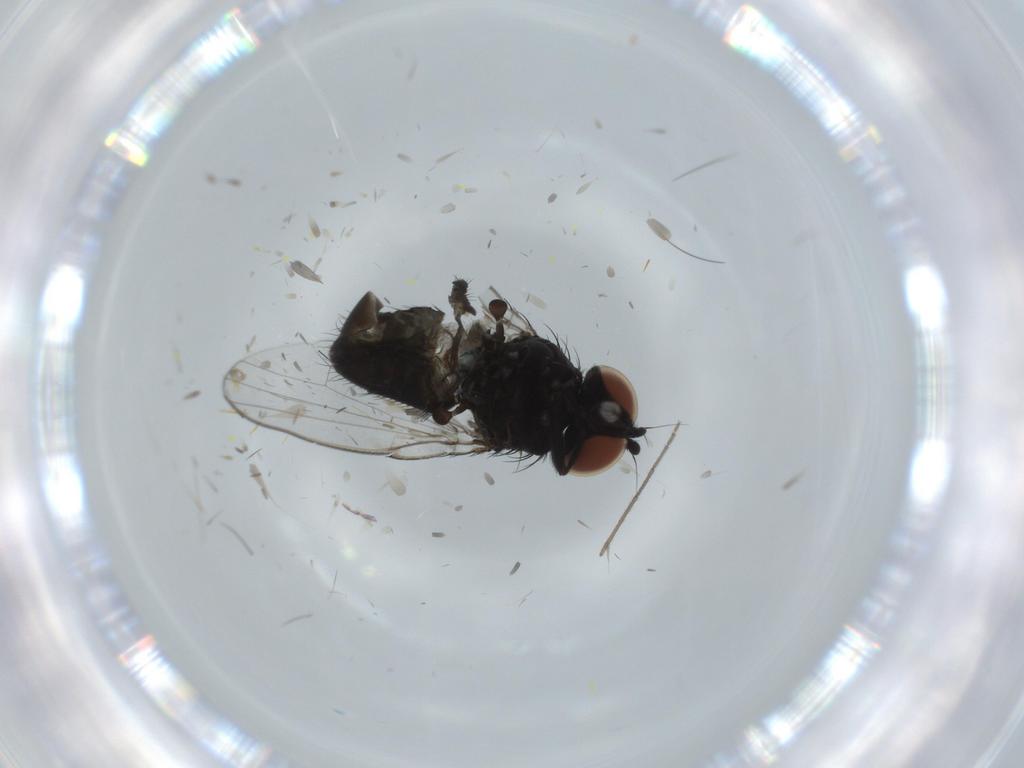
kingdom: Animalia
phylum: Arthropoda
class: Insecta
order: Diptera
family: Milichiidae
